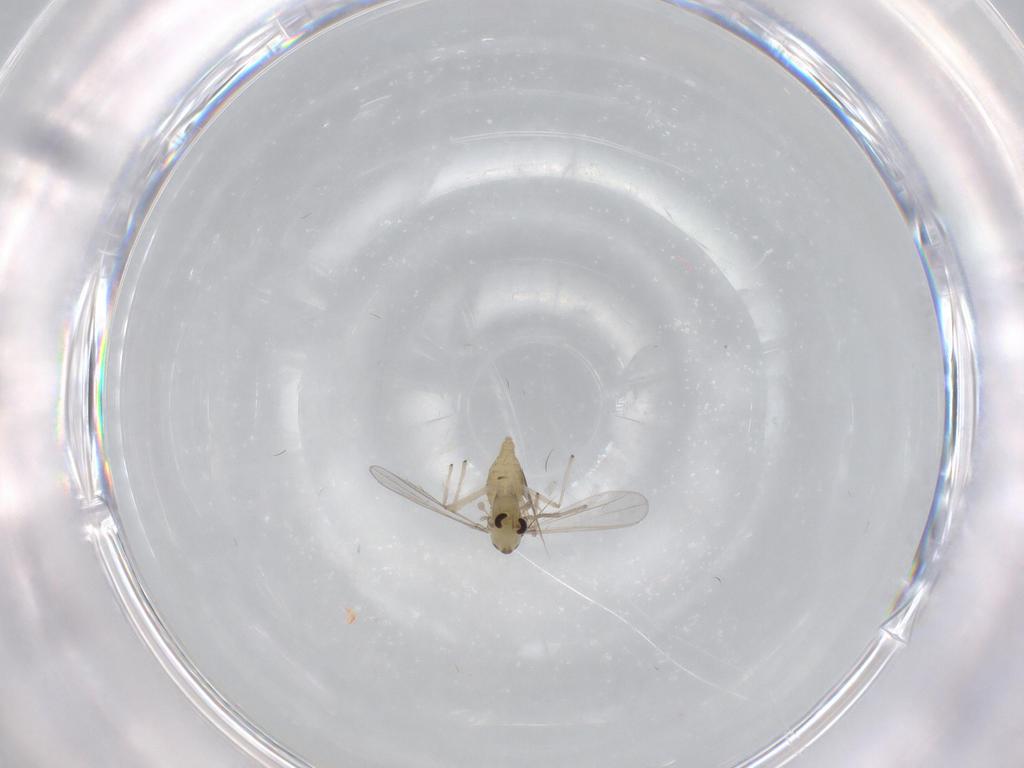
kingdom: Animalia
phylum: Arthropoda
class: Insecta
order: Diptera
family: Chironomidae
